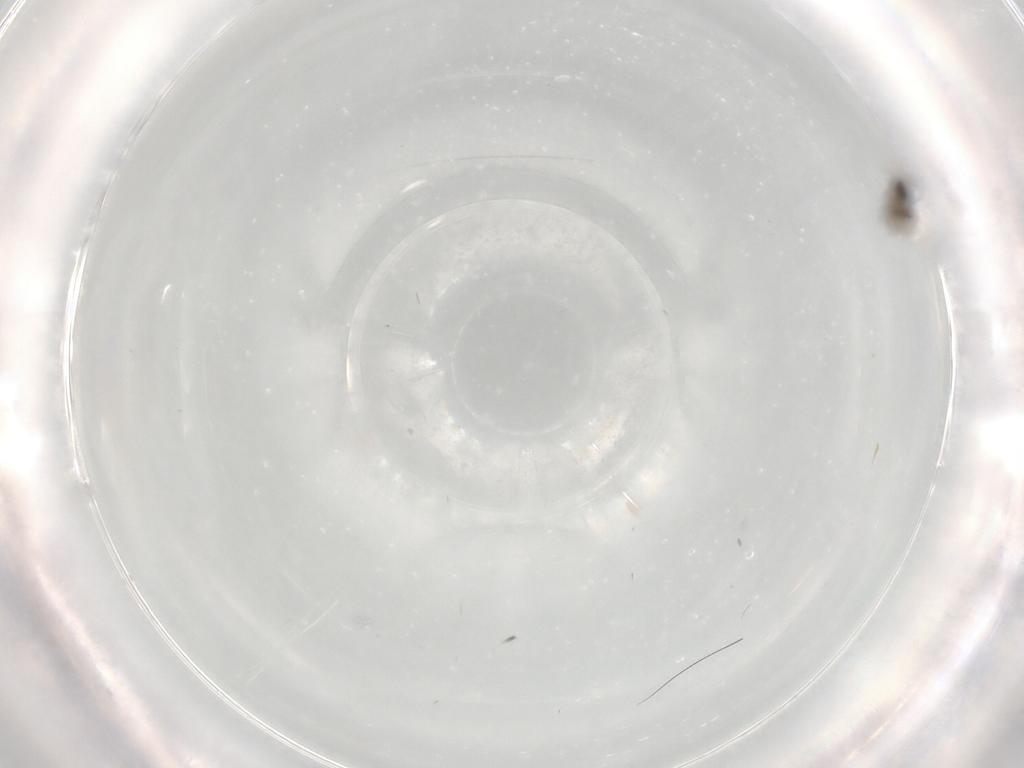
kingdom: Animalia
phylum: Arthropoda
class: Insecta
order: Diptera
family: Cecidomyiidae
